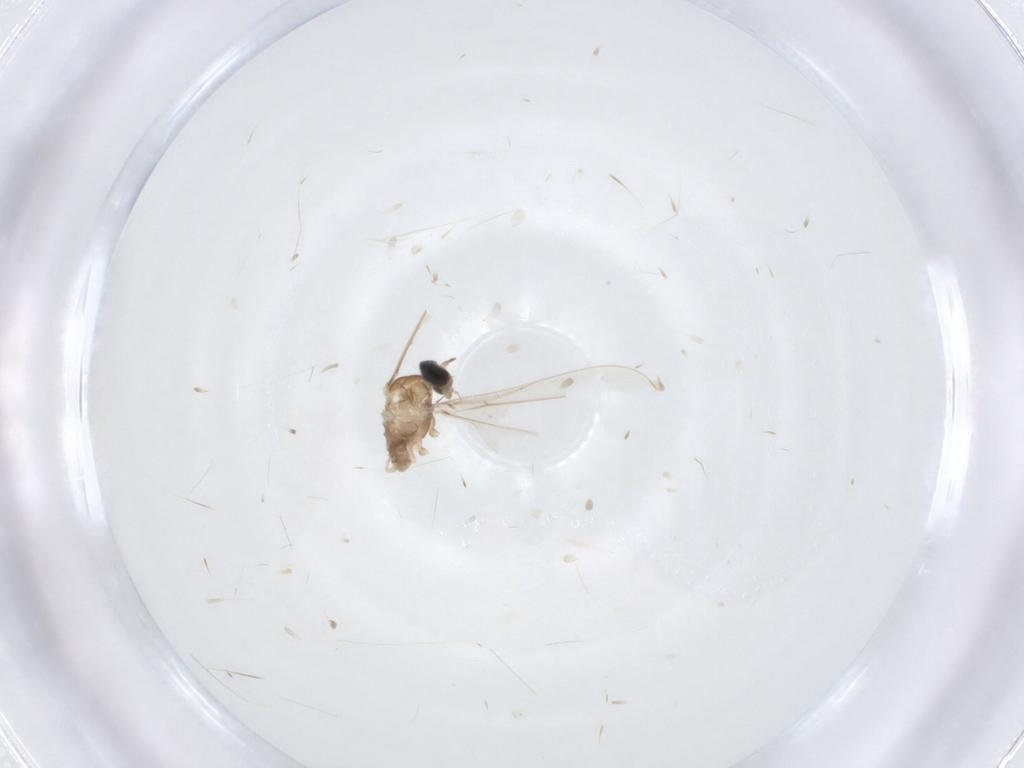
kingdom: Animalia
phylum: Arthropoda
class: Insecta
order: Diptera
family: Cecidomyiidae
